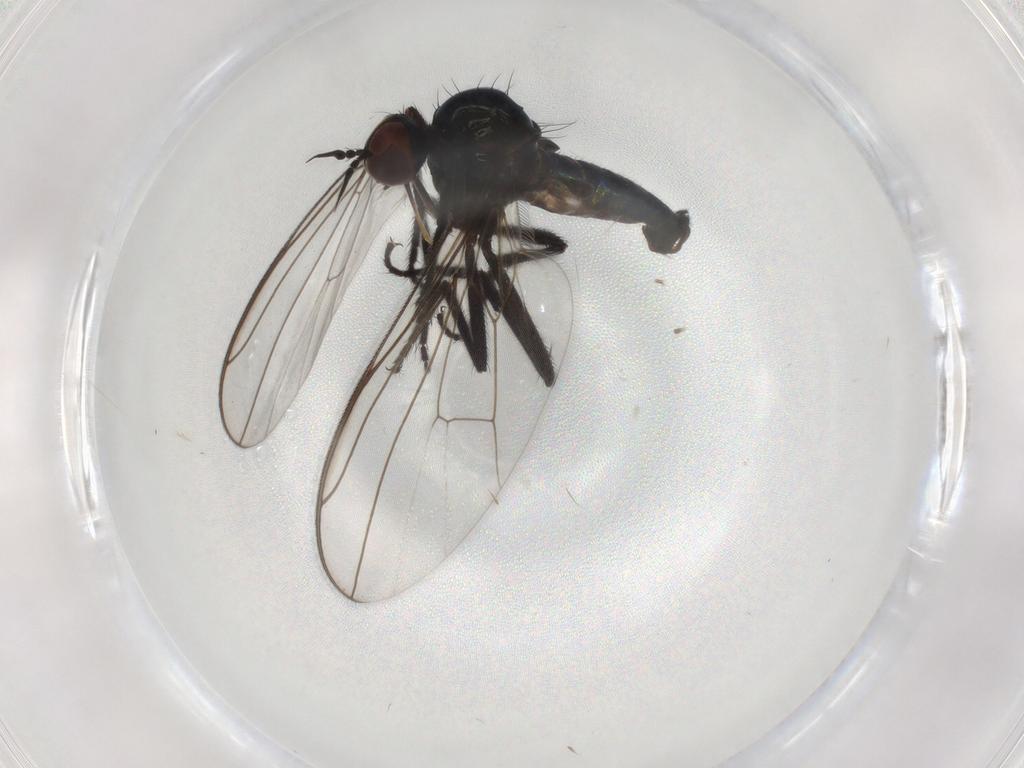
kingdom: Animalia
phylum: Arthropoda
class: Insecta
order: Diptera
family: Empididae
